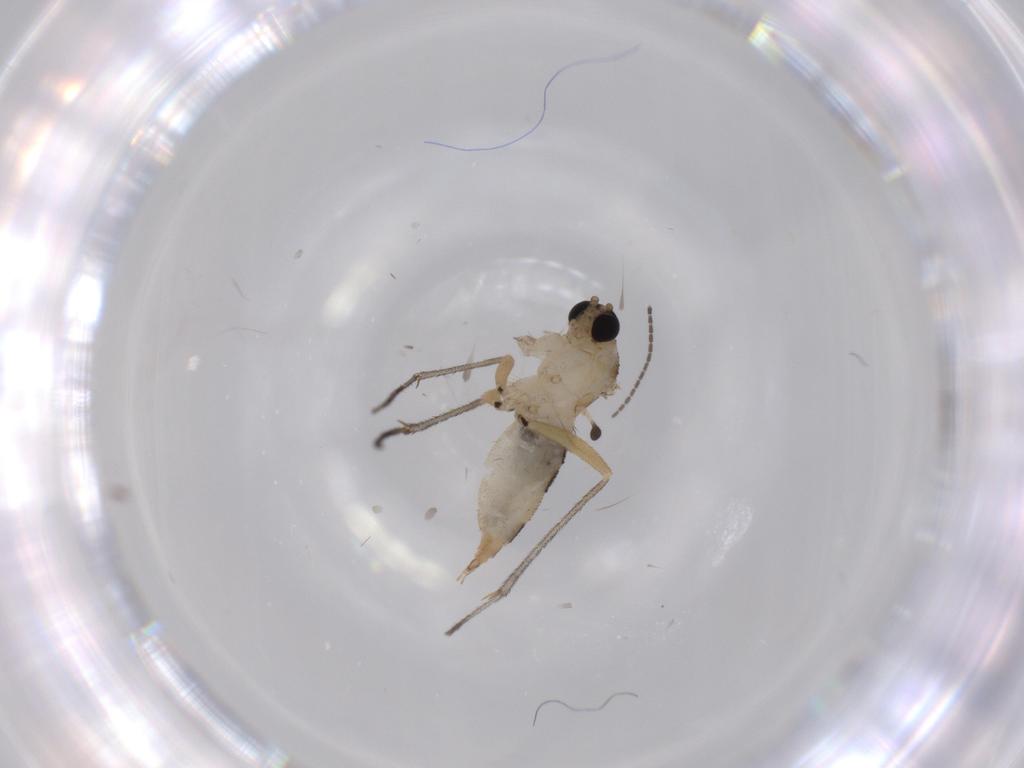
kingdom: Animalia
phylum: Arthropoda
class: Insecta
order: Diptera
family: Sciaridae
